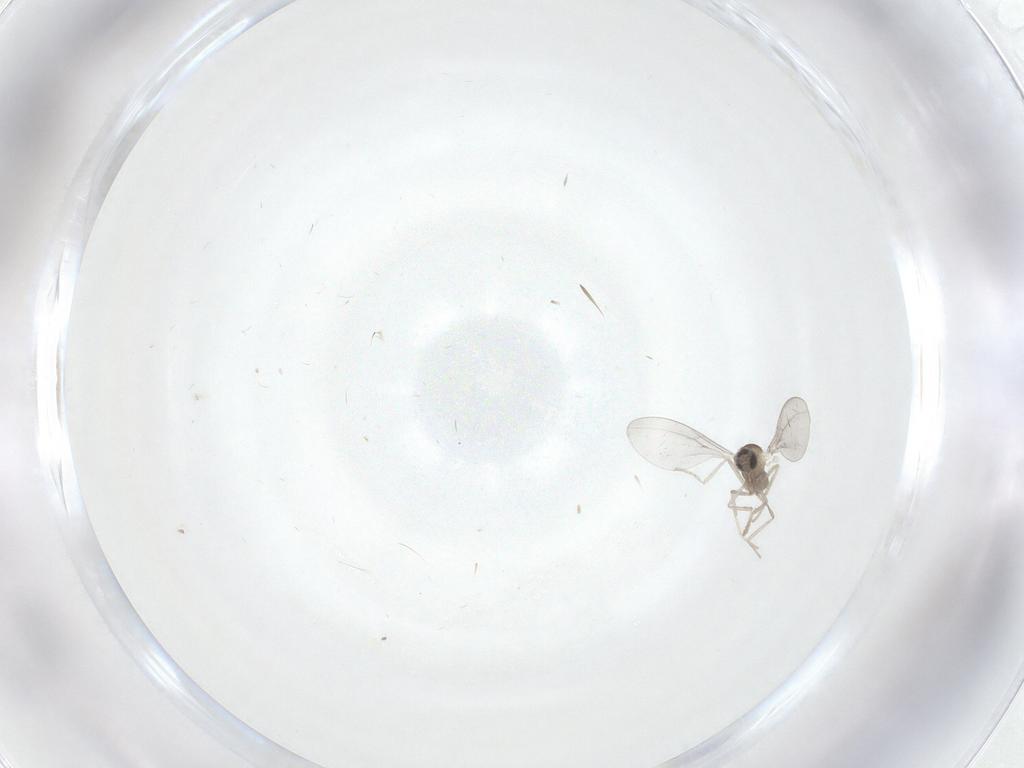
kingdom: Animalia
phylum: Arthropoda
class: Insecta
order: Diptera
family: Cecidomyiidae
